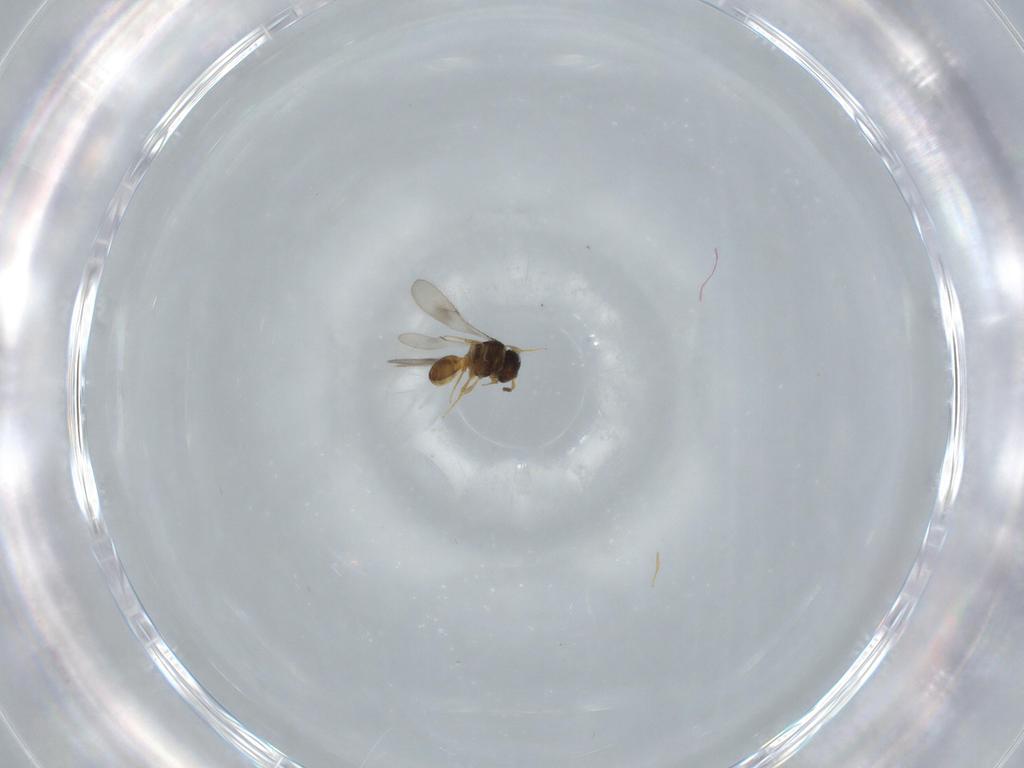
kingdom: Animalia
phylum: Arthropoda
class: Insecta
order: Hymenoptera
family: Scelionidae
